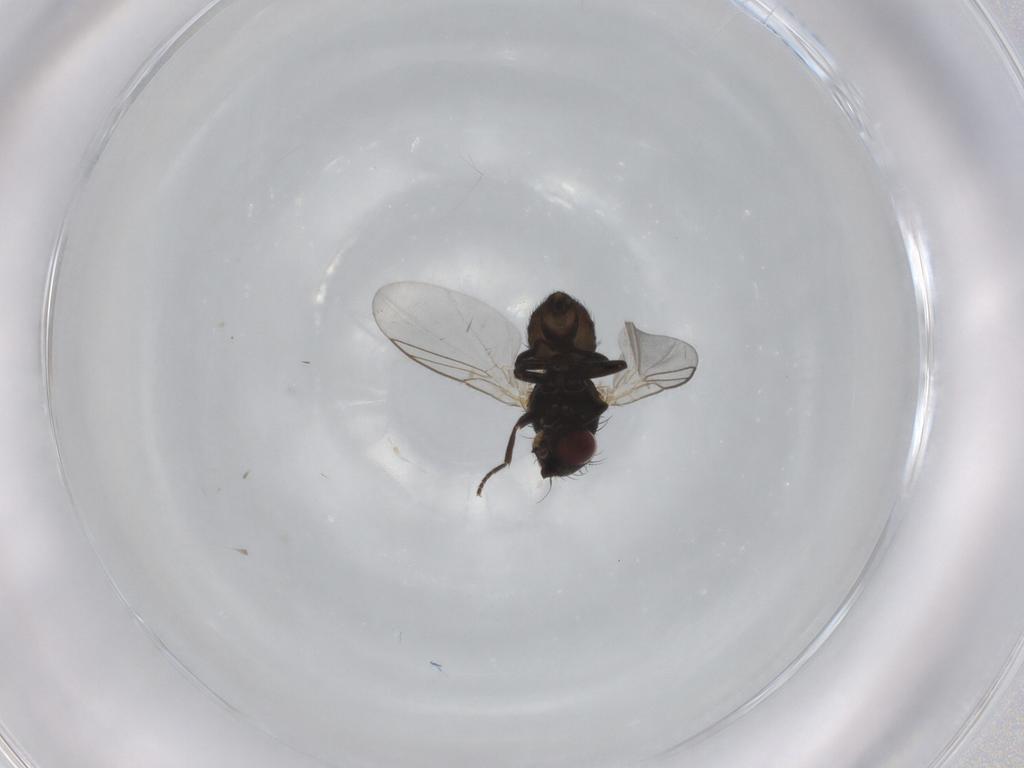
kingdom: Animalia
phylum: Arthropoda
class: Insecta
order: Diptera
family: Ceratopogonidae
